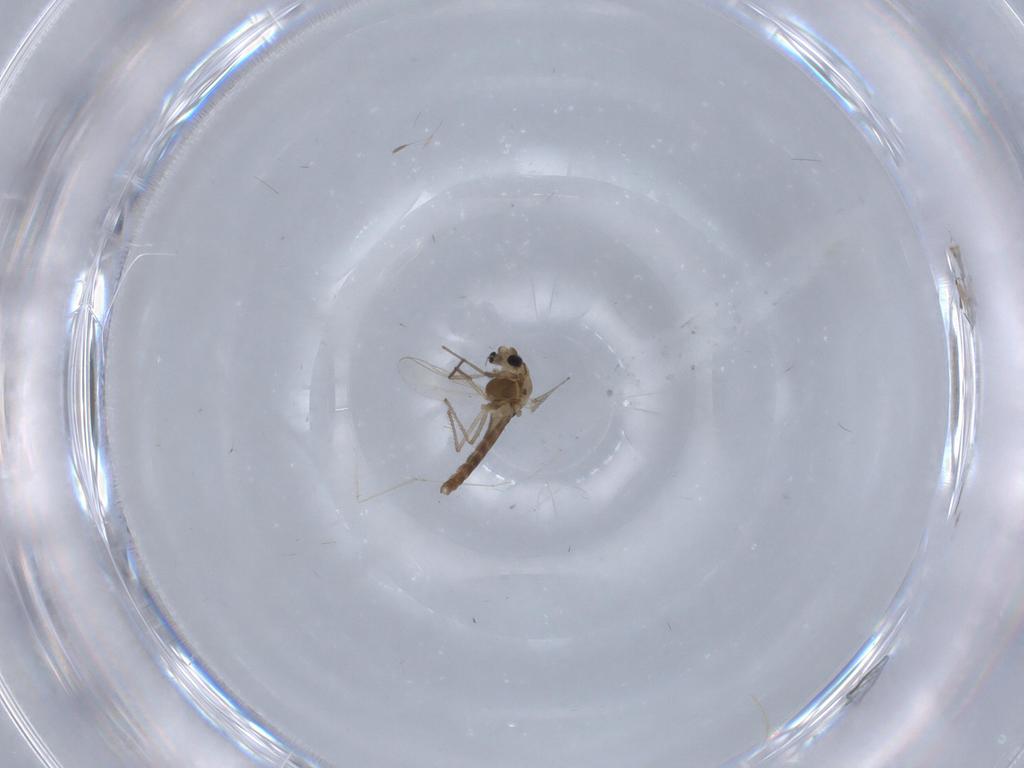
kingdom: Animalia
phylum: Arthropoda
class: Insecta
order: Diptera
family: Chironomidae
